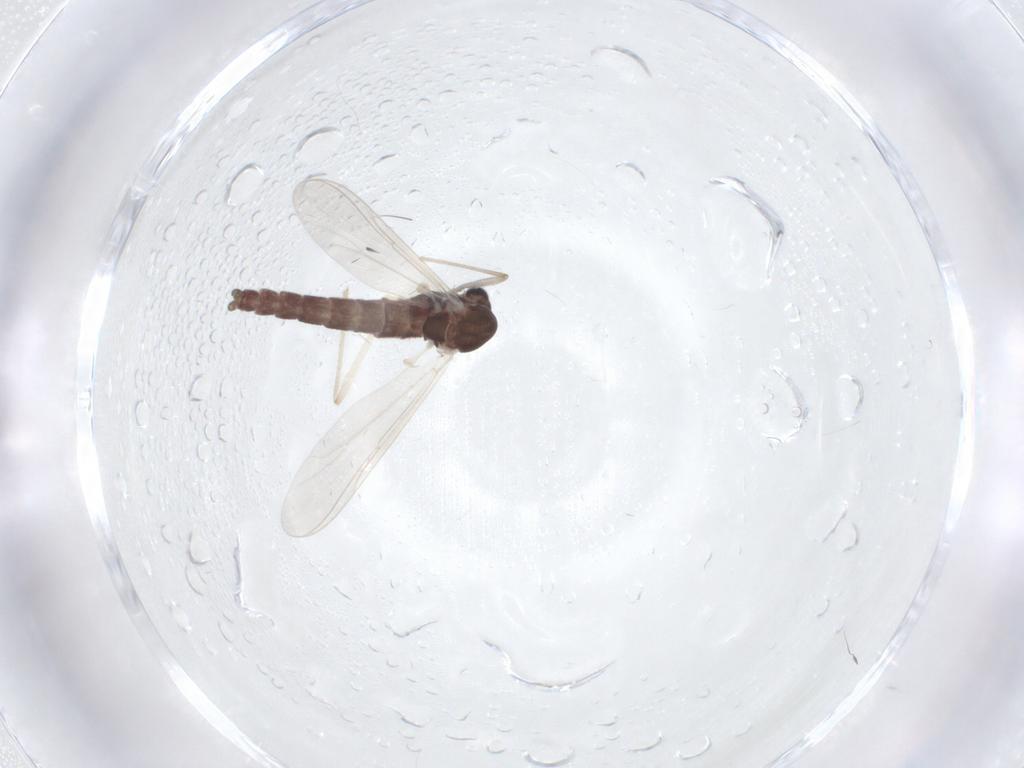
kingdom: Animalia
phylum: Arthropoda
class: Insecta
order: Diptera
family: Chironomidae
